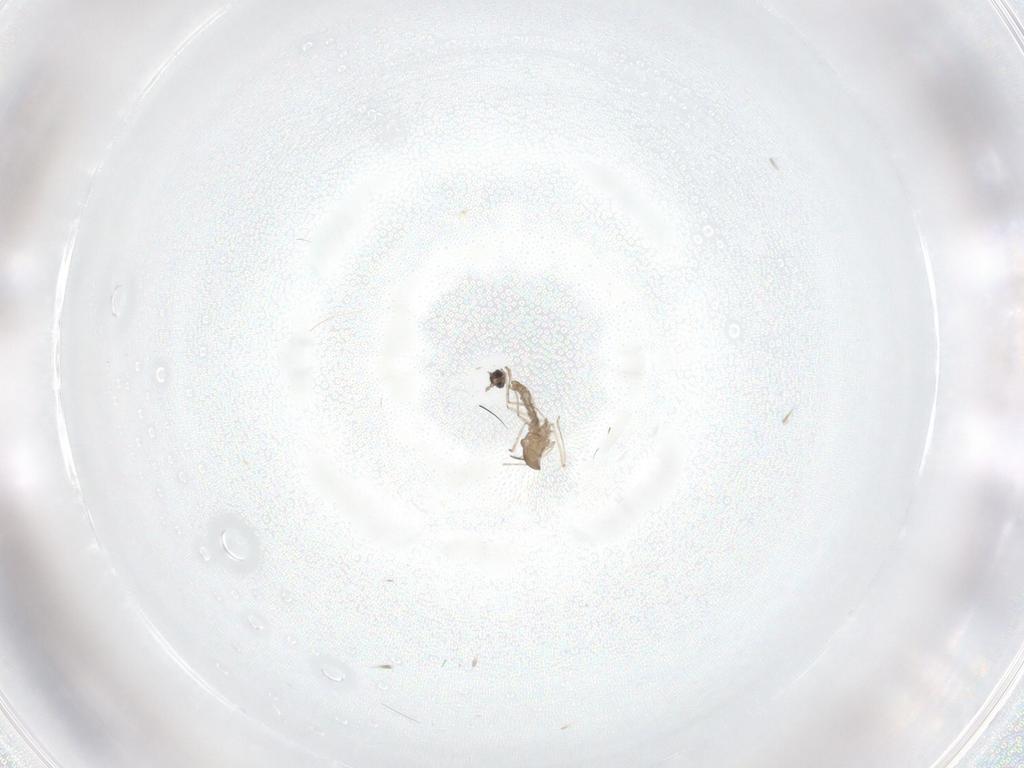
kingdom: Animalia
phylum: Arthropoda
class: Insecta
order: Diptera
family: Cecidomyiidae
